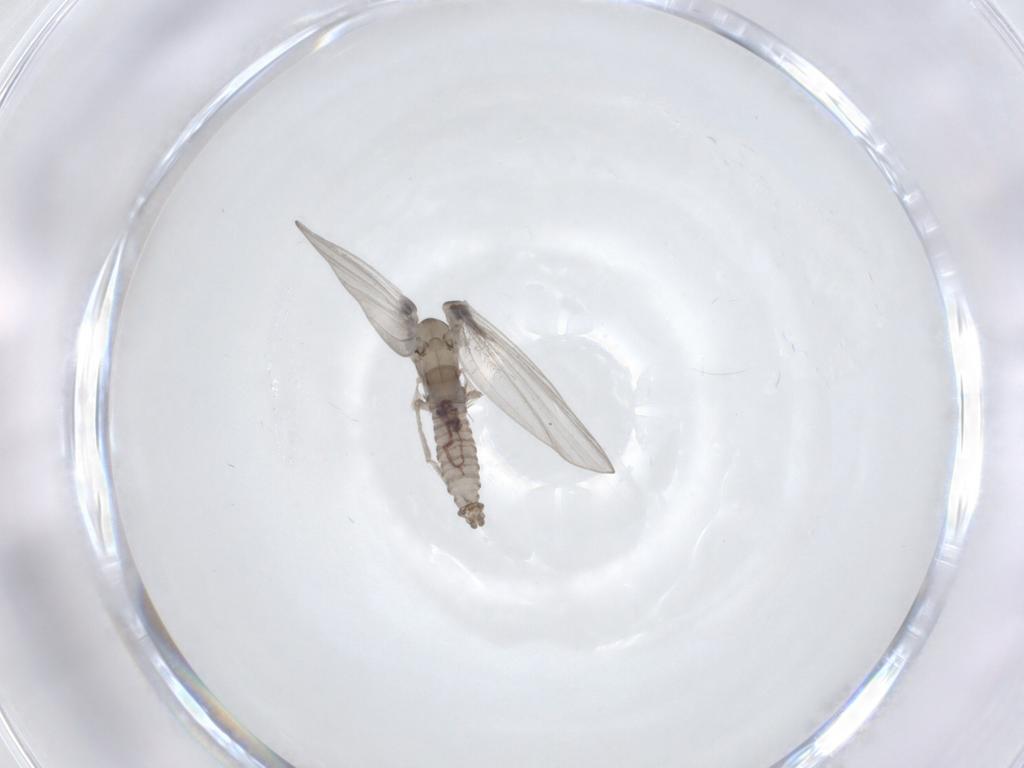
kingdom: Animalia
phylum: Arthropoda
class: Insecta
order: Diptera
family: Psychodidae
